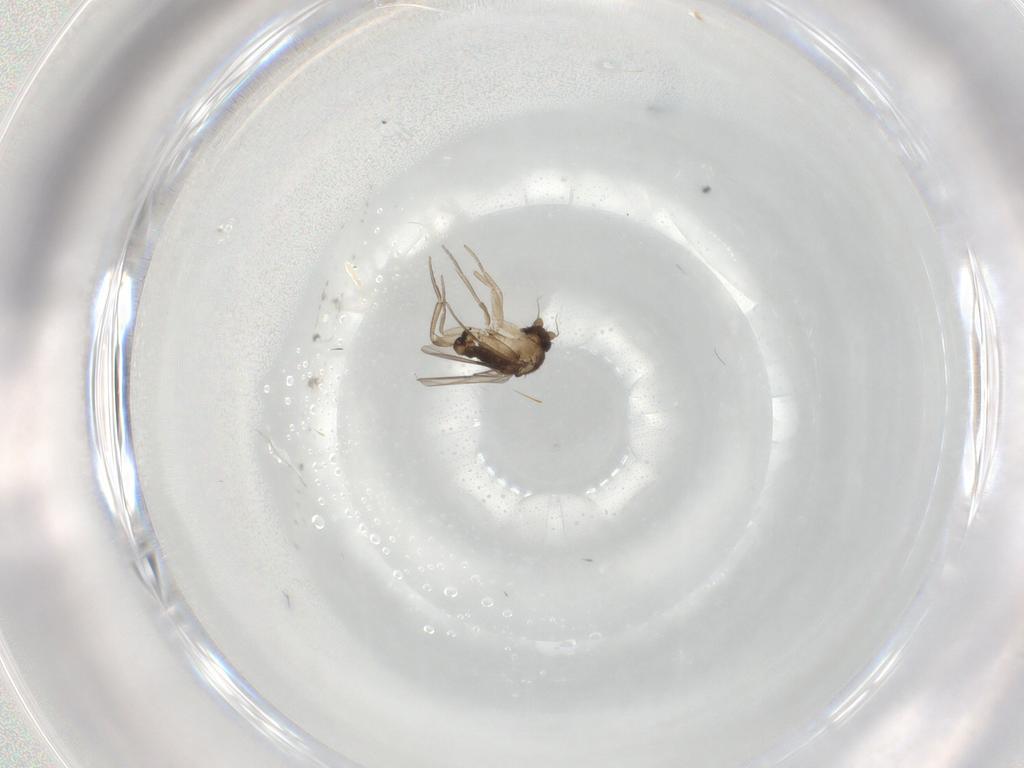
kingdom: Animalia
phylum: Arthropoda
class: Insecta
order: Diptera
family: Phoridae
